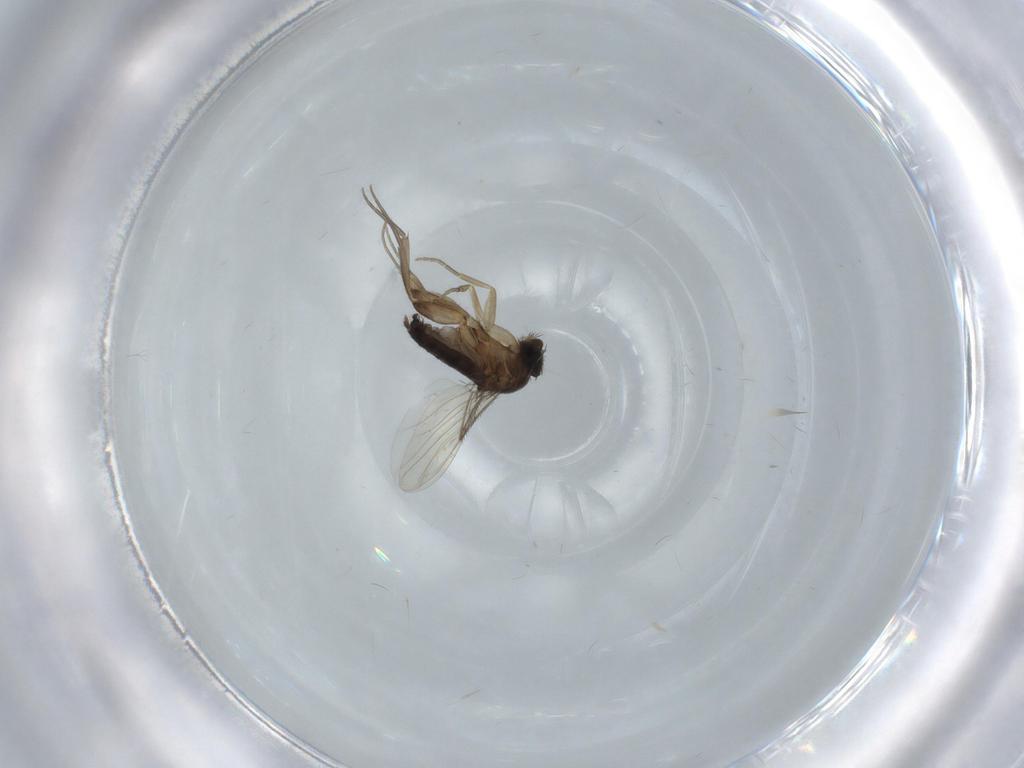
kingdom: Animalia
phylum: Arthropoda
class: Insecta
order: Diptera
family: Phoridae
